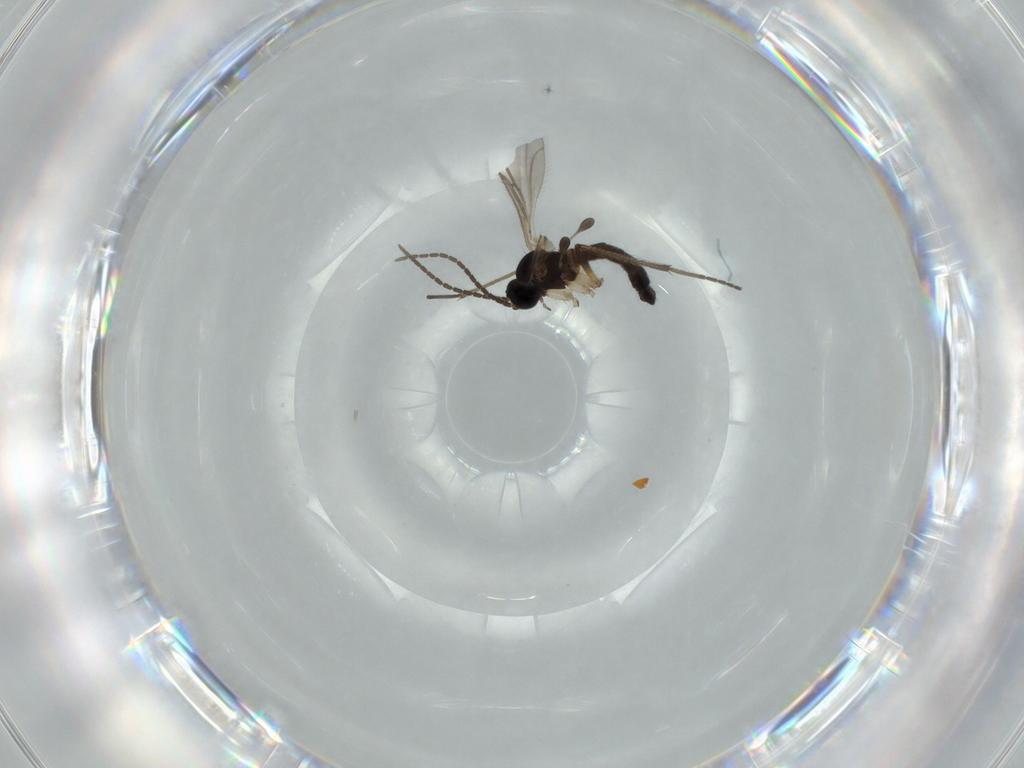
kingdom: Animalia
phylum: Arthropoda
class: Insecta
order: Diptera
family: Sciaridae
